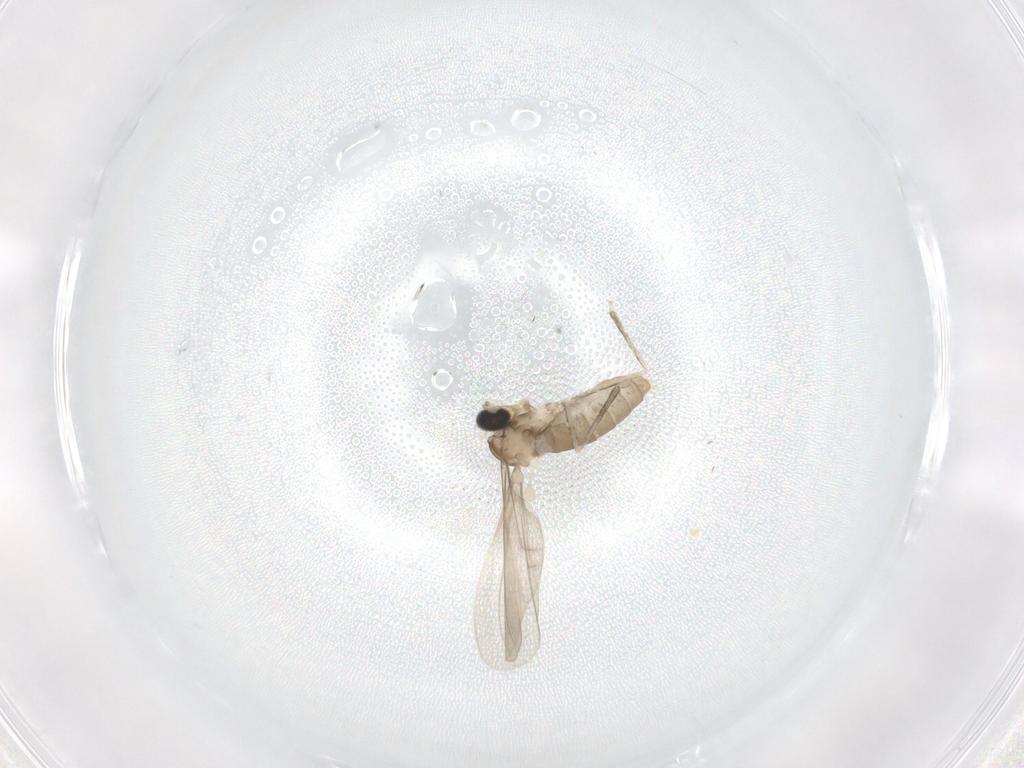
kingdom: Animalia
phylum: Arthropoda
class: Insecta
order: Diptera
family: Cecidomyiidae
